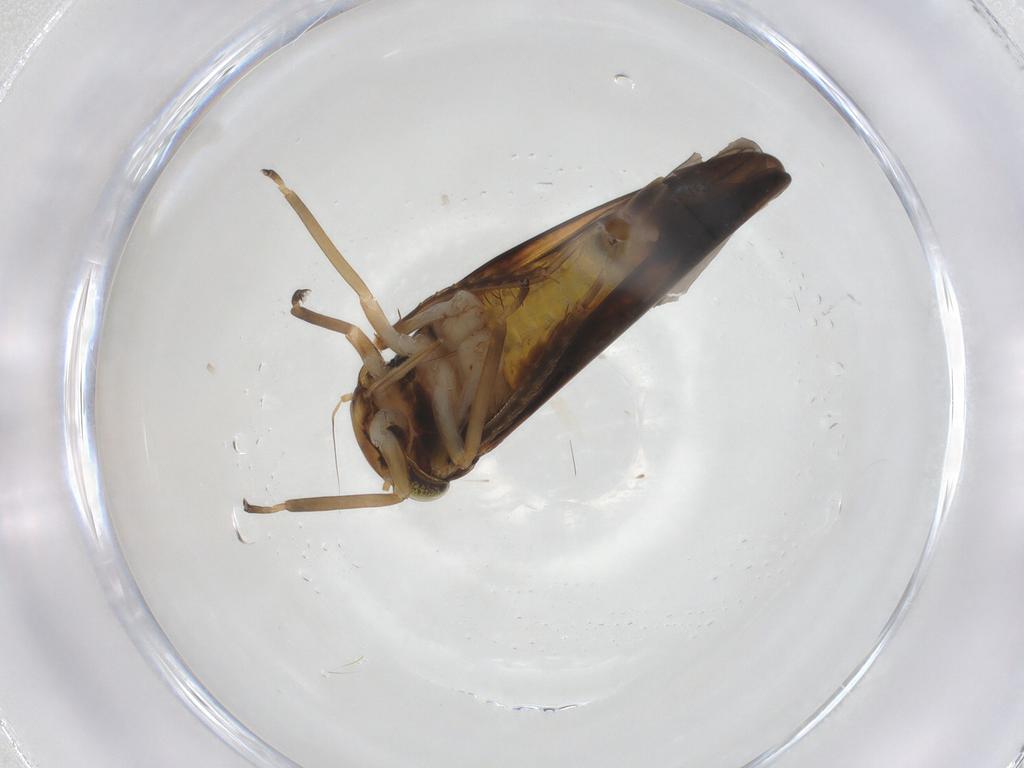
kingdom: Animalia
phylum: Arthropoda
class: Insecta
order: Hemiptera
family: Cicadellidae
